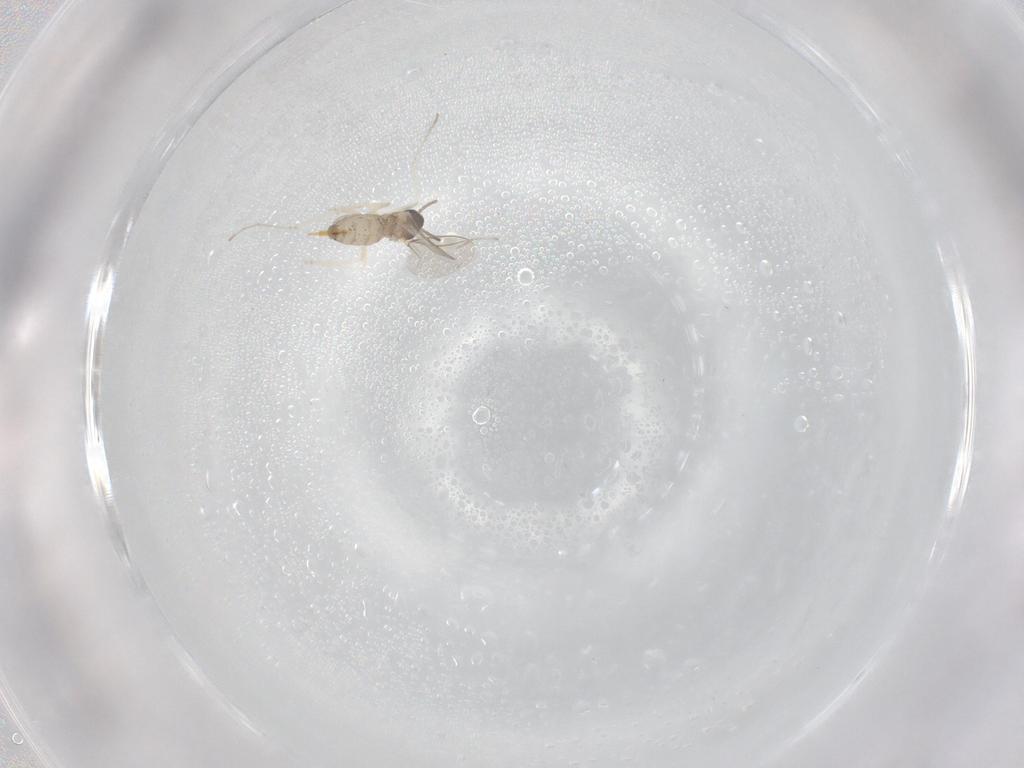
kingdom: Animalia
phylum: Arthropoda
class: Insecta
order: Diptera
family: Cecidomyiidae
